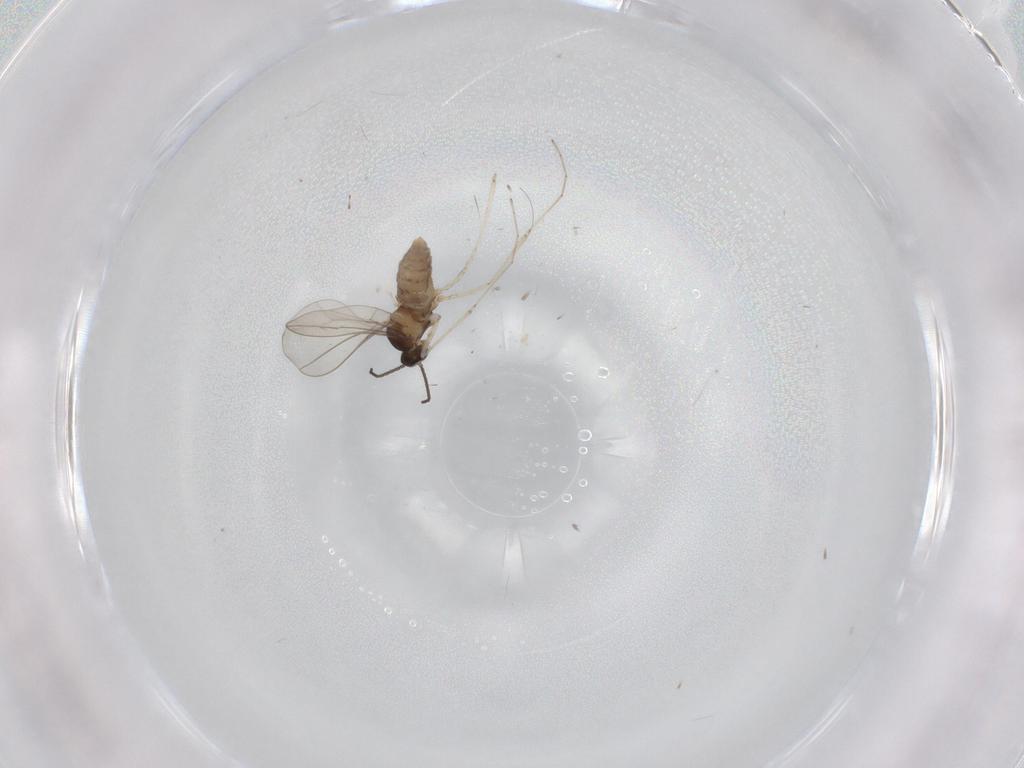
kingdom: Animalia
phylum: Arthropoda
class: Insecta
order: Diptera
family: Cecidomyiidae
